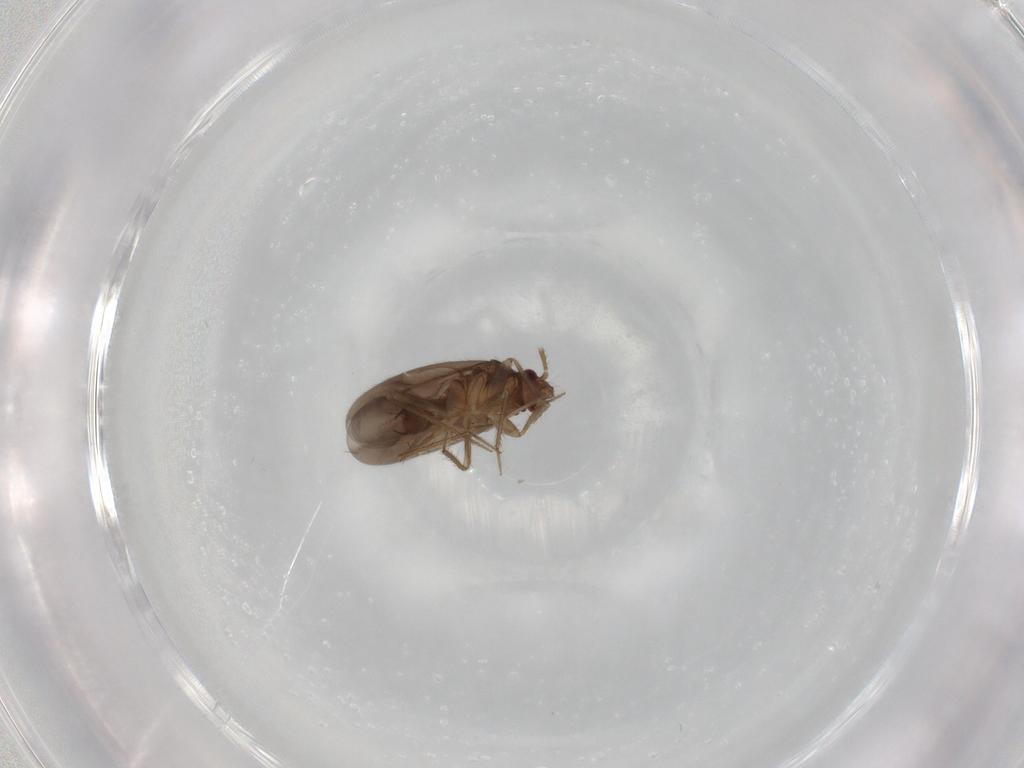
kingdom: Animalia
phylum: Arthropoda
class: Insecta
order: Hemiptera
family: Ceratocombidae
